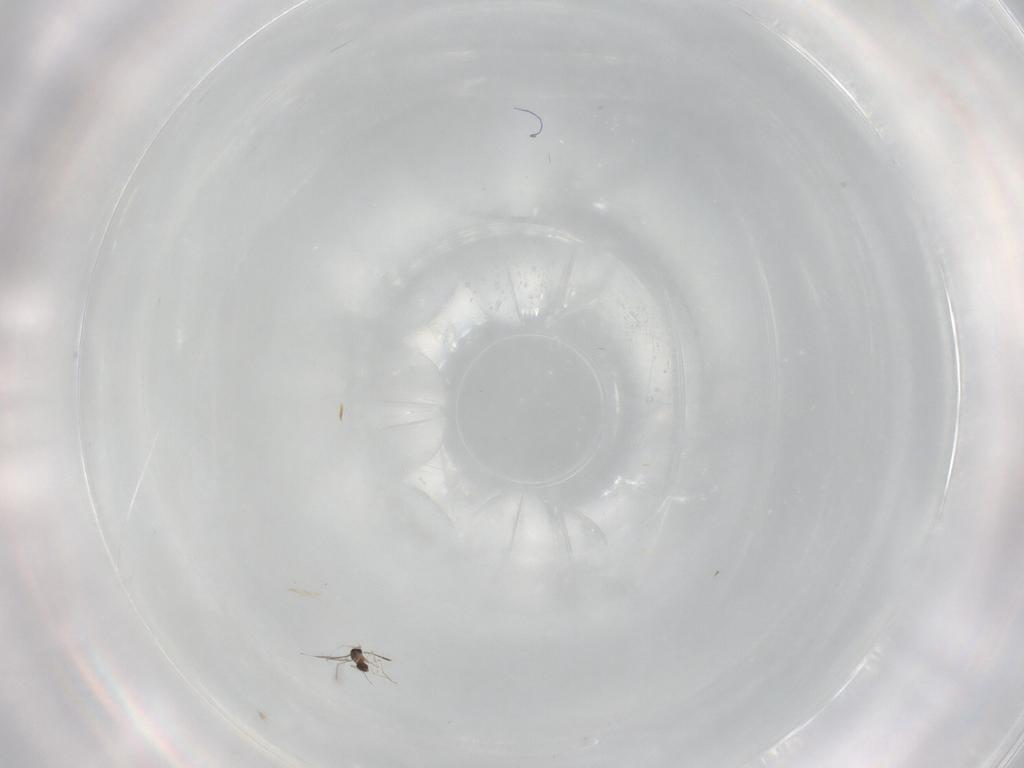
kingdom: Animalia
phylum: Arthropoda
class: Insecta
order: Hymenoptera
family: Mymaridae
